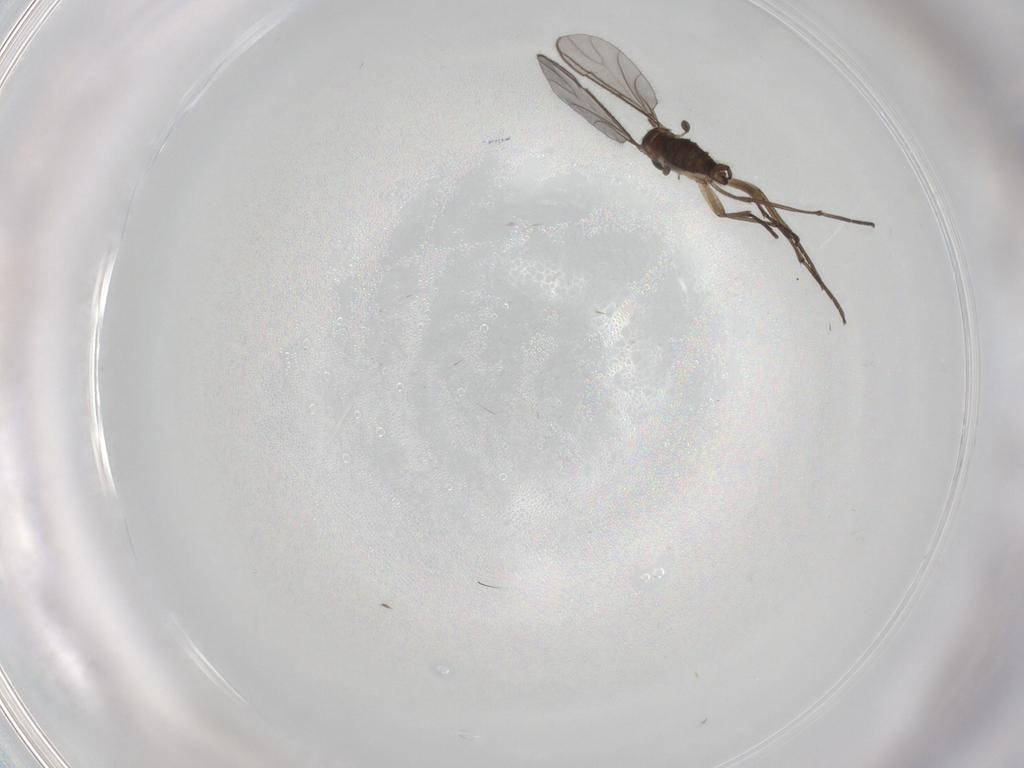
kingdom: Animalia
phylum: Arthropoda
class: Insecta
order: Diptera
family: Sciaridae
